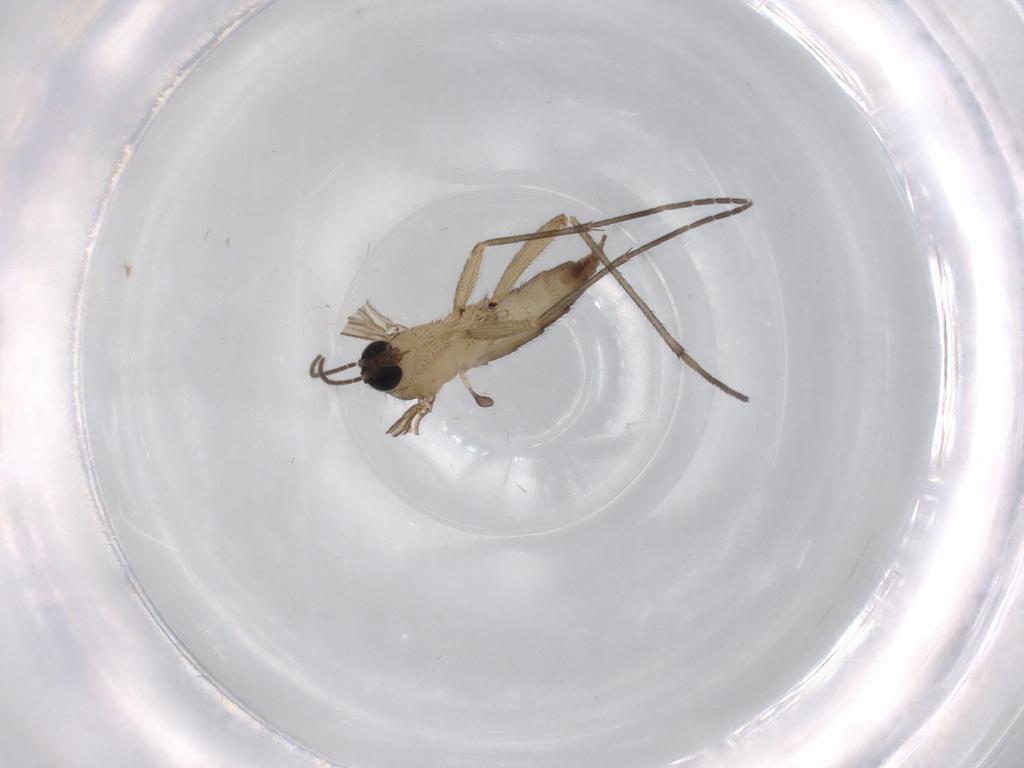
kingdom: Animalia
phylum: Arthropoda
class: Insecta
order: Diptera
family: Sciaridae
